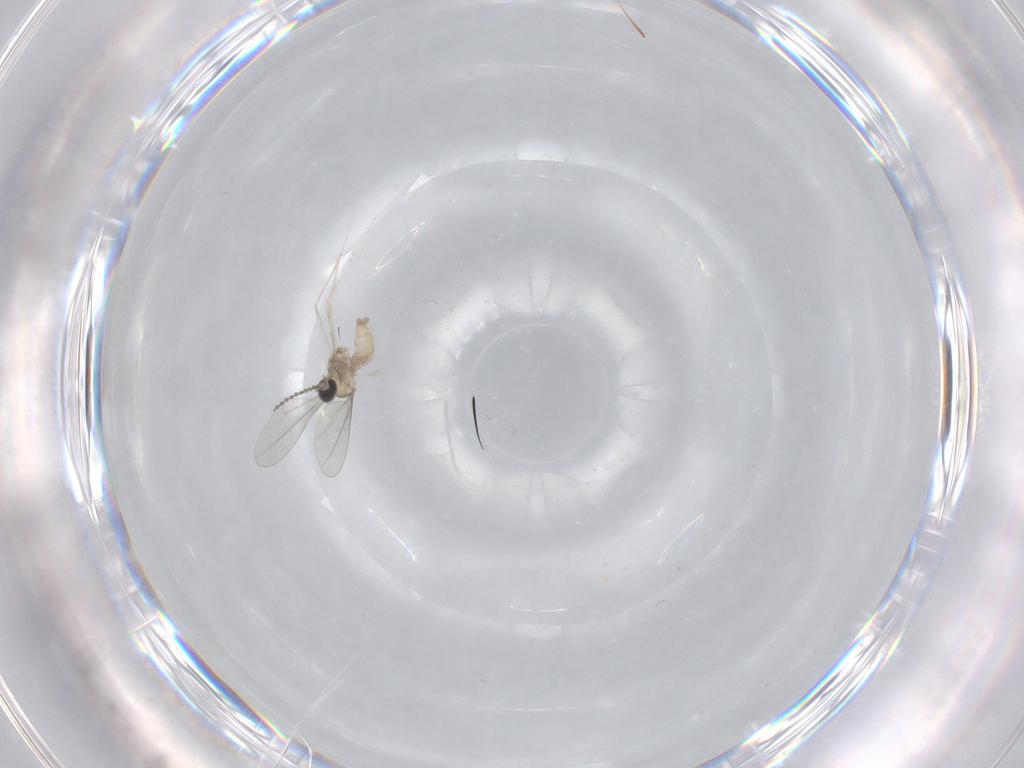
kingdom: Animalia
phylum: Arthropoda
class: Insecta
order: Diptera
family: Cecidomyiidae
